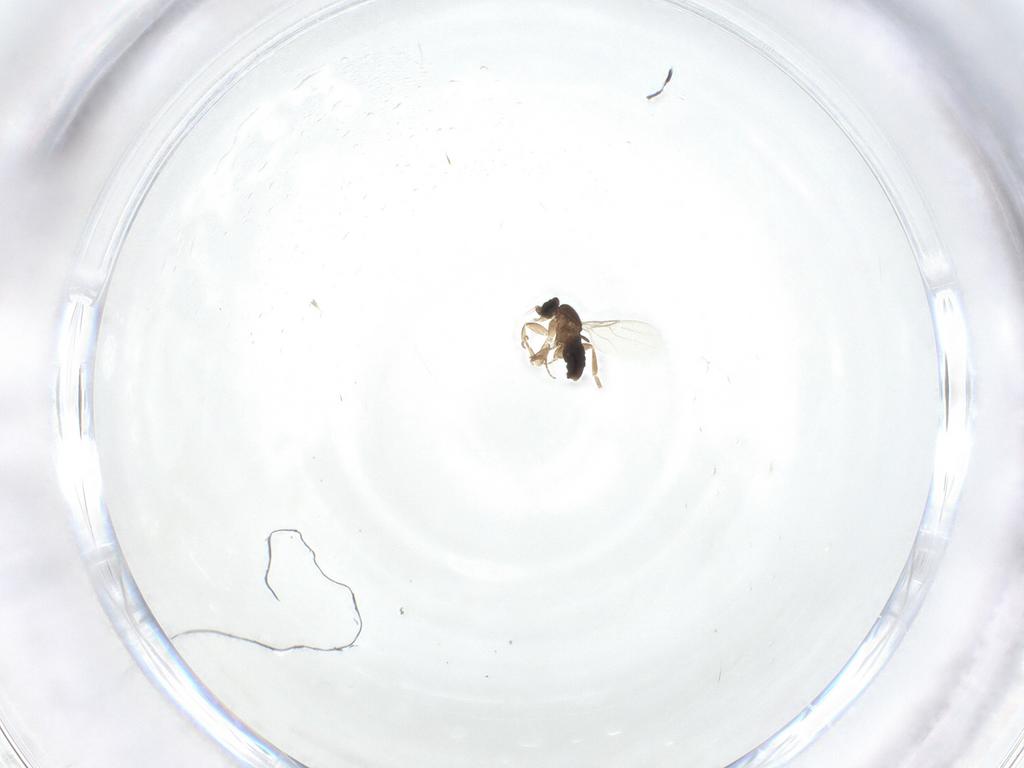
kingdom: Animalia
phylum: Arthropoda
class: Insecta
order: Diptera
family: Phoridae
